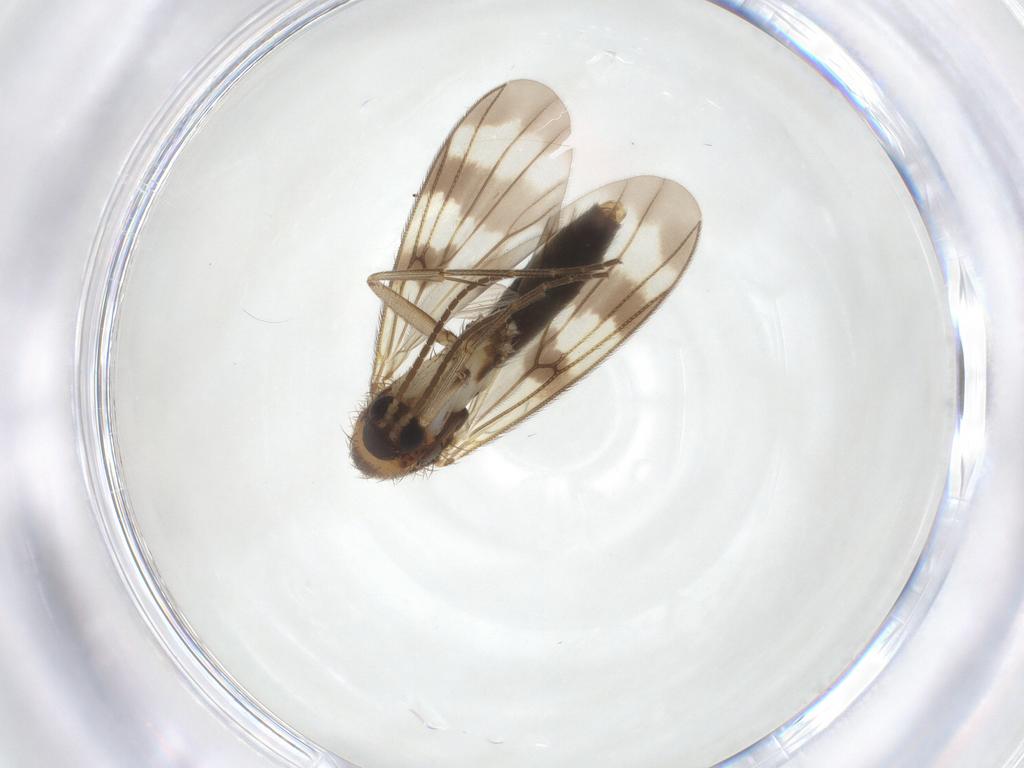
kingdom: Animalia
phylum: Arthropoda
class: Insecta
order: Diptera
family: Mycetophilidae
